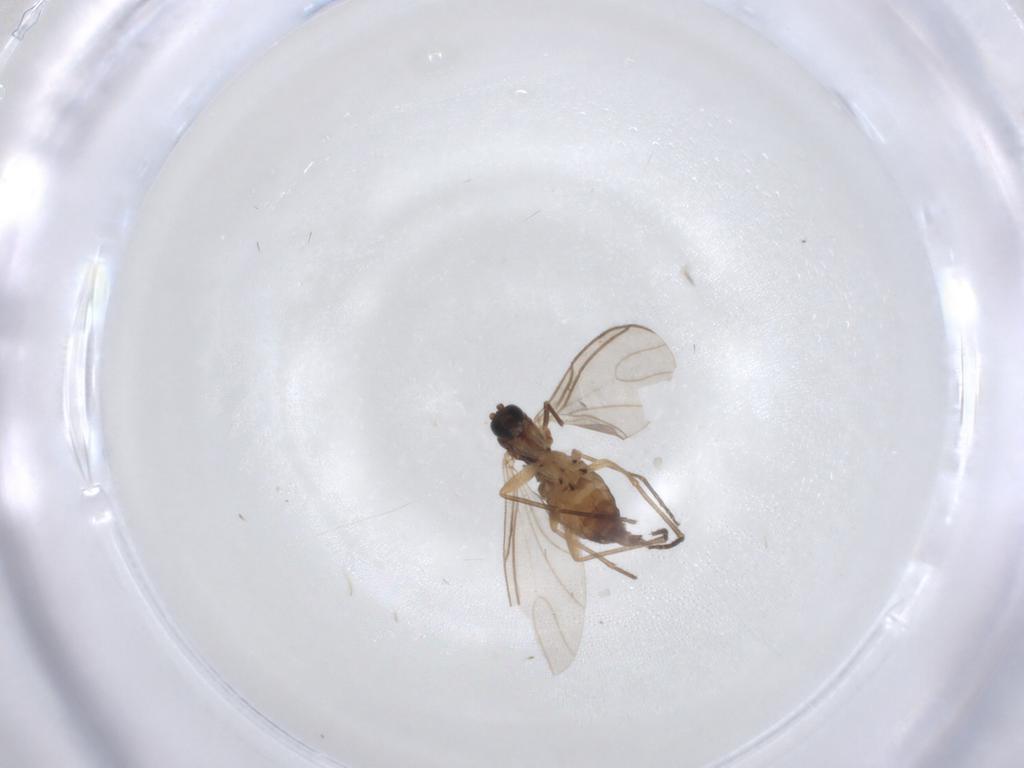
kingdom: Animalia
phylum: Arthropoda
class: Insecta
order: Diptera
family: Sciaridae
